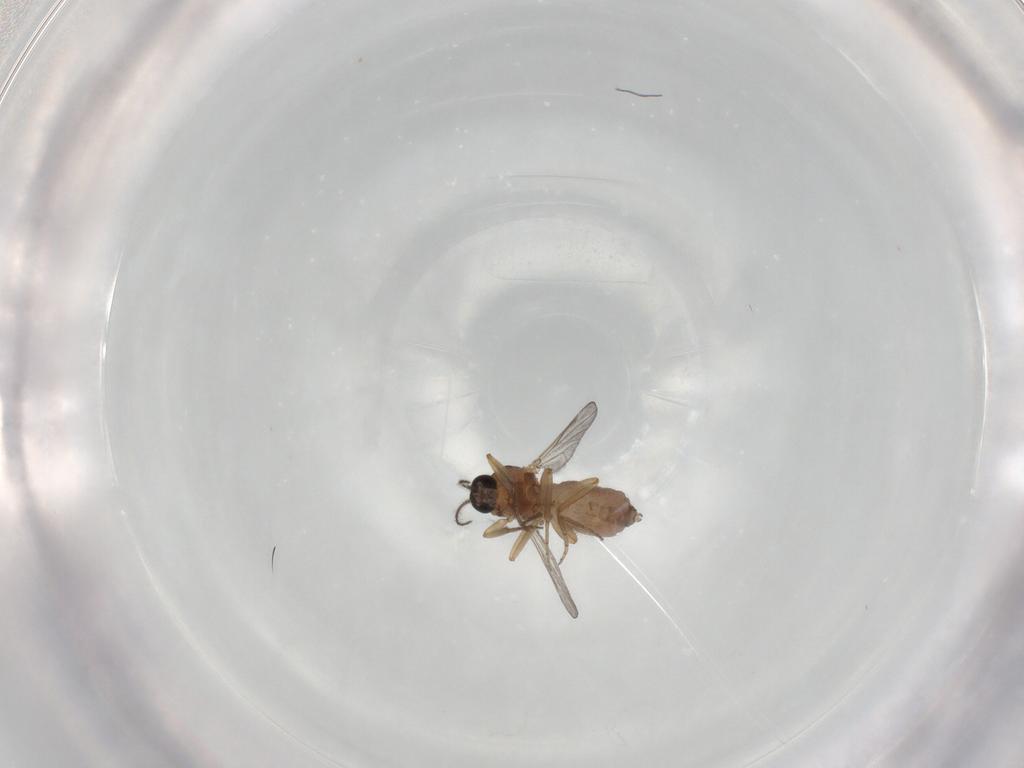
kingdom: Animalia
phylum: Arthropoda
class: Insecta
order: Diptera
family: Ceratopogonidae
